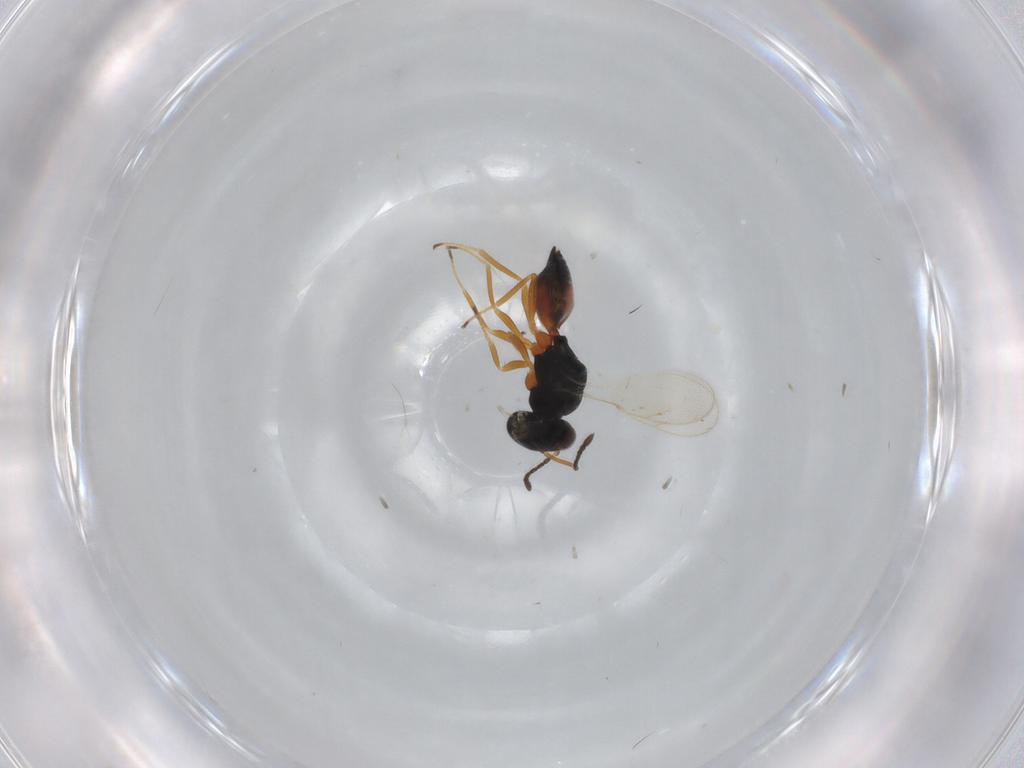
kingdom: Animalia
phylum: Arthropoda
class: Insecta
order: Hymenoptera
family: Pteromalidae
